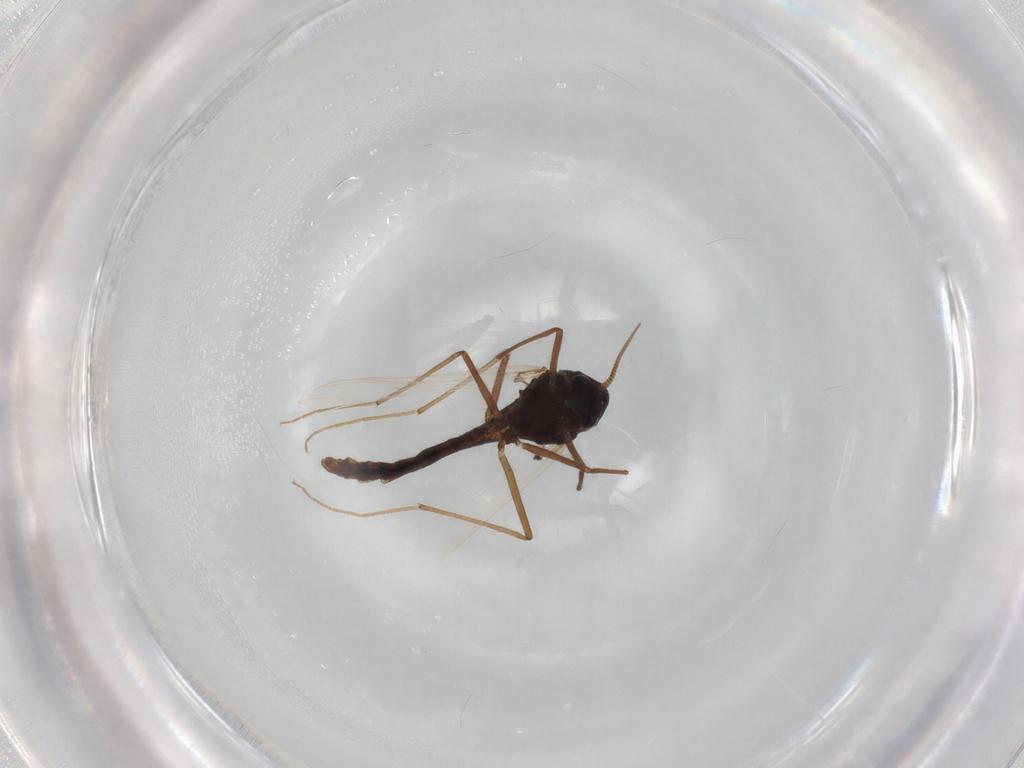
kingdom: Animalia
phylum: Arthropoda
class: Insecta
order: Diptera
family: Chironomidae
